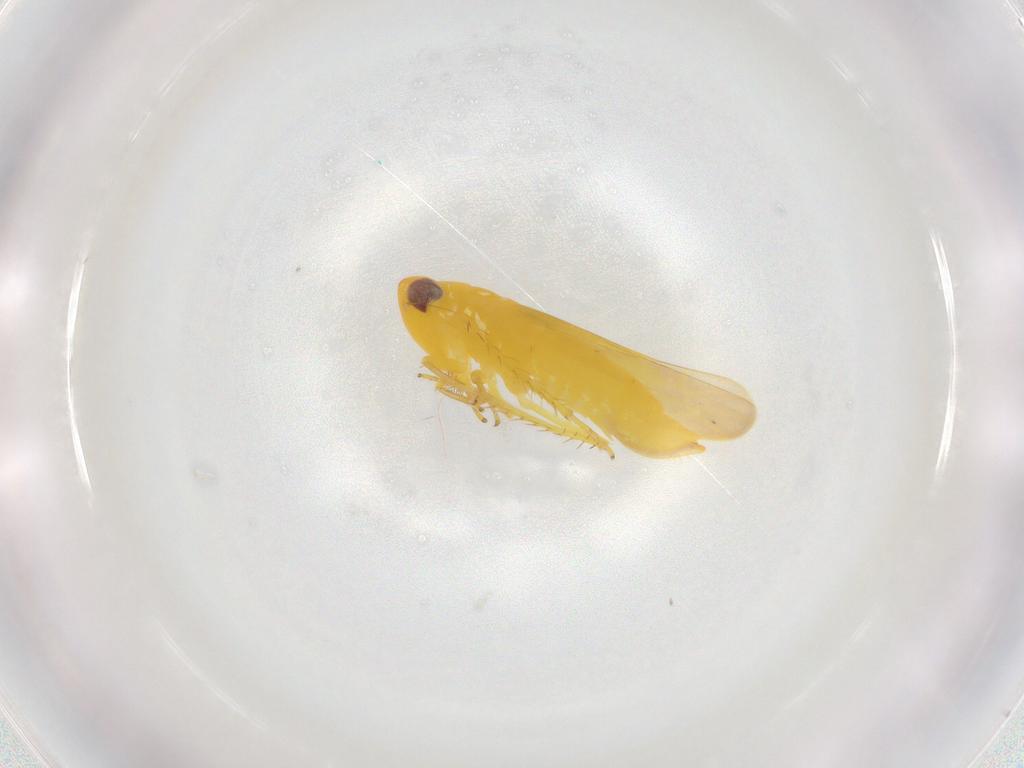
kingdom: Animalia
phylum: Arthropoda
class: Insecta
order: Hemiptera
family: Cicadellidae
